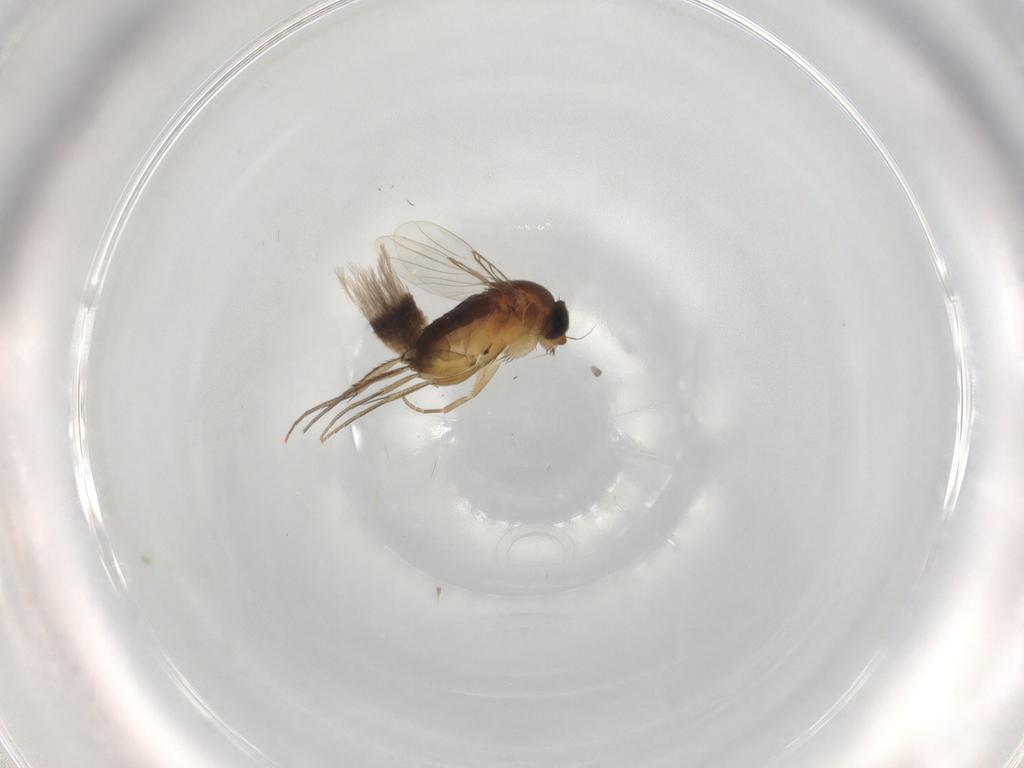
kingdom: Animalia
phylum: Arthropoda
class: Insecta
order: Diptera
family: Phoridae
